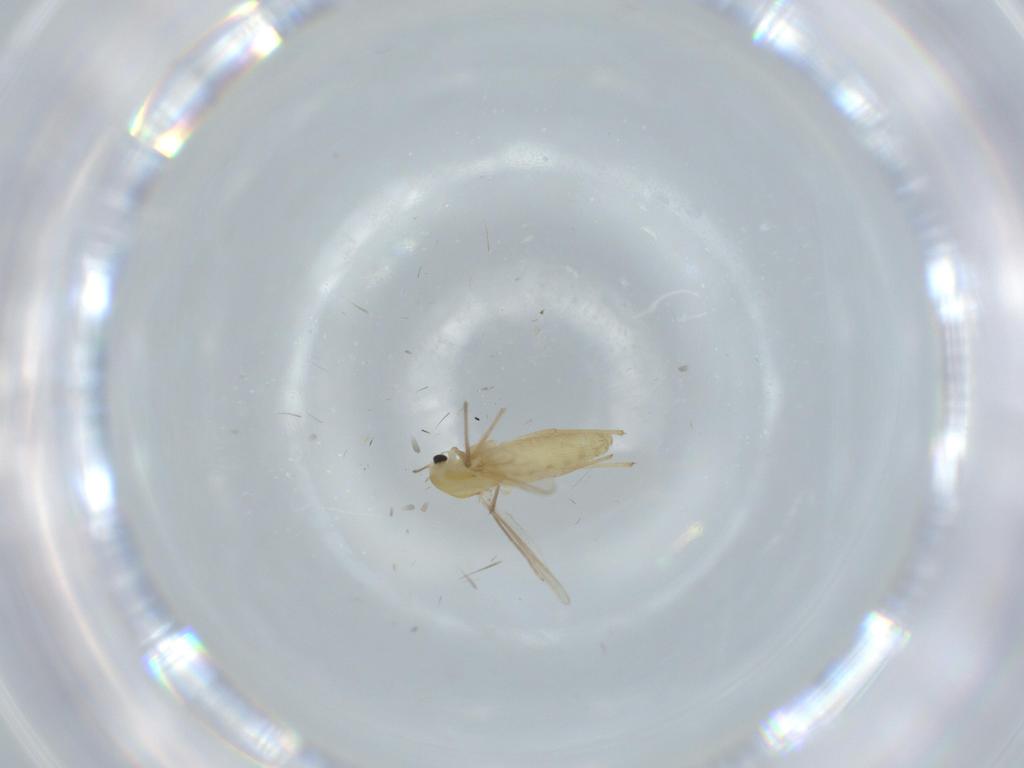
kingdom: Animalia
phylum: Arthropoda
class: Insecta
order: Diptera
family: Chironomidae
